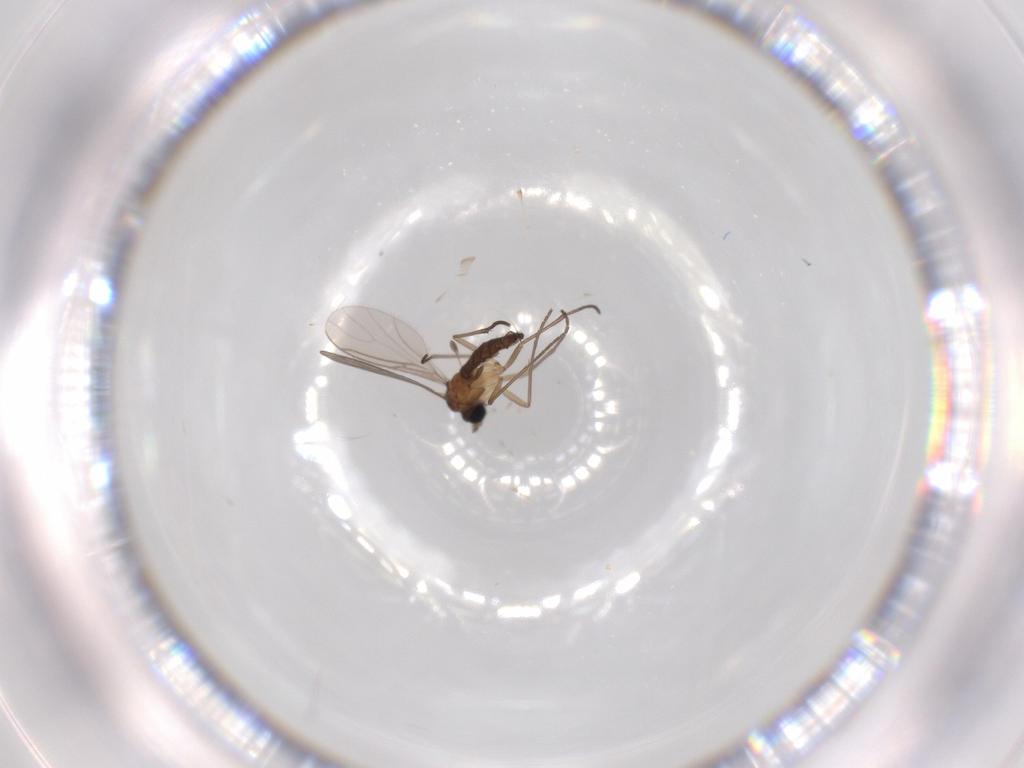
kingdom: Animalia
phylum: Arthropoda
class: Insecta
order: Diptera
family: Sciaridae
